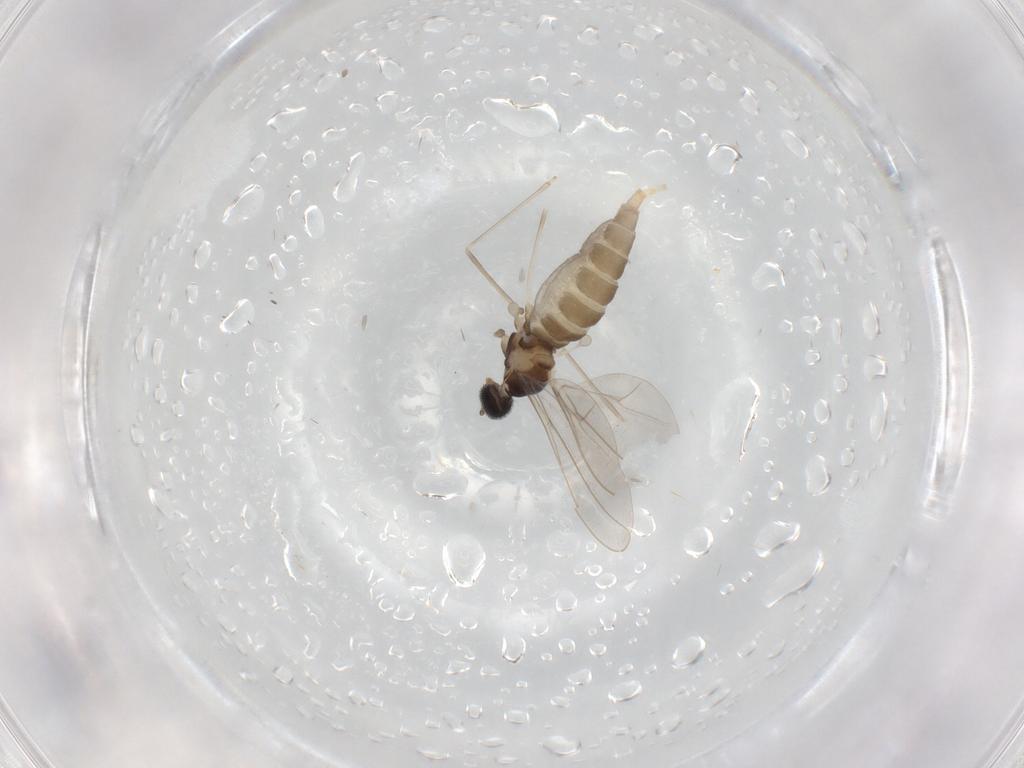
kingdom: Animalia
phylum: Arthropoda
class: Insecta
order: Diptera
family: Cecidomyiidae
